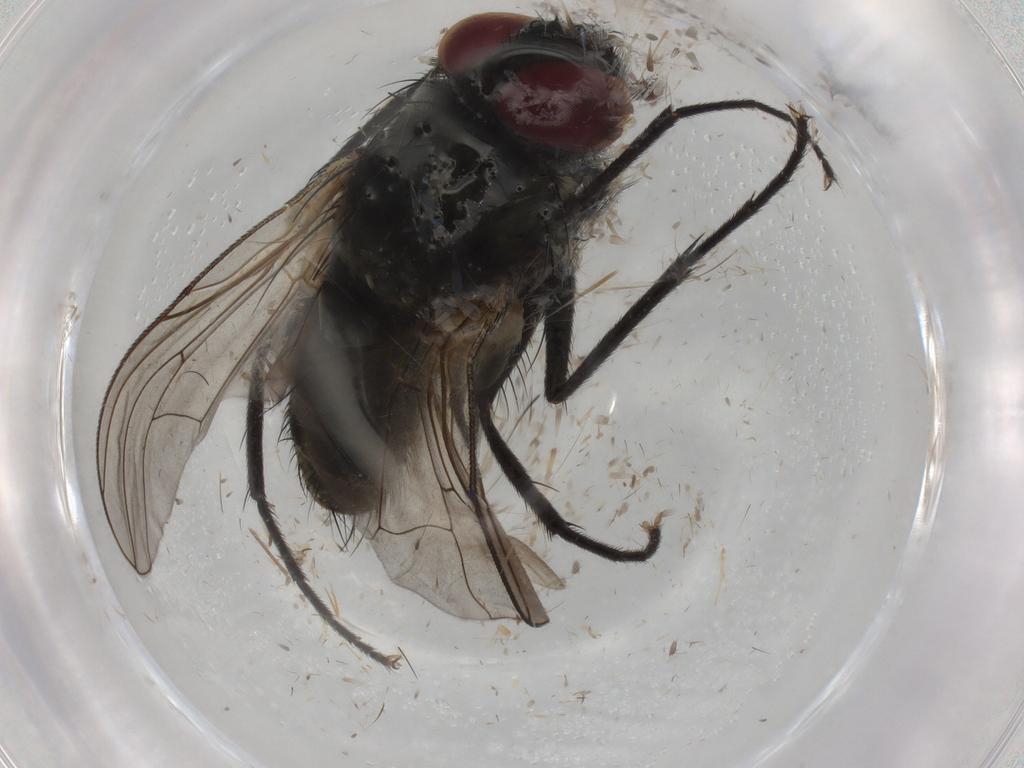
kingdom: Animalia
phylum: Arthropoda
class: Insecta
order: Diptera
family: Muscidae
